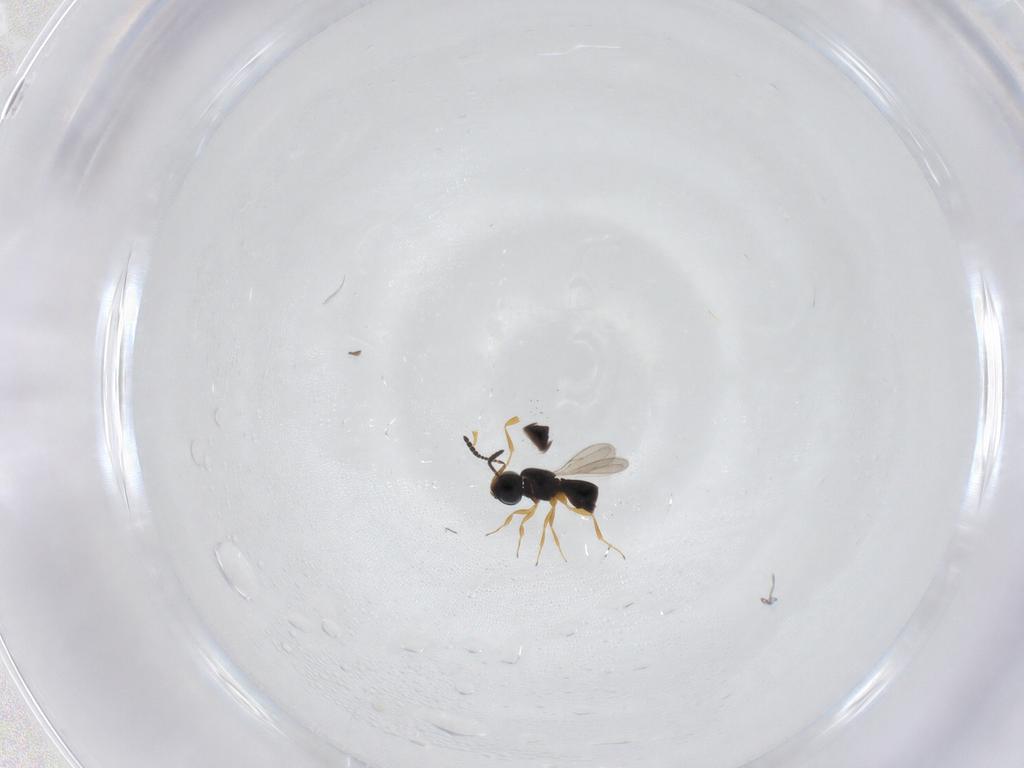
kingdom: Animalia
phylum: Arthropoda
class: Insecta
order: Hymenoptera
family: Scelionidae
